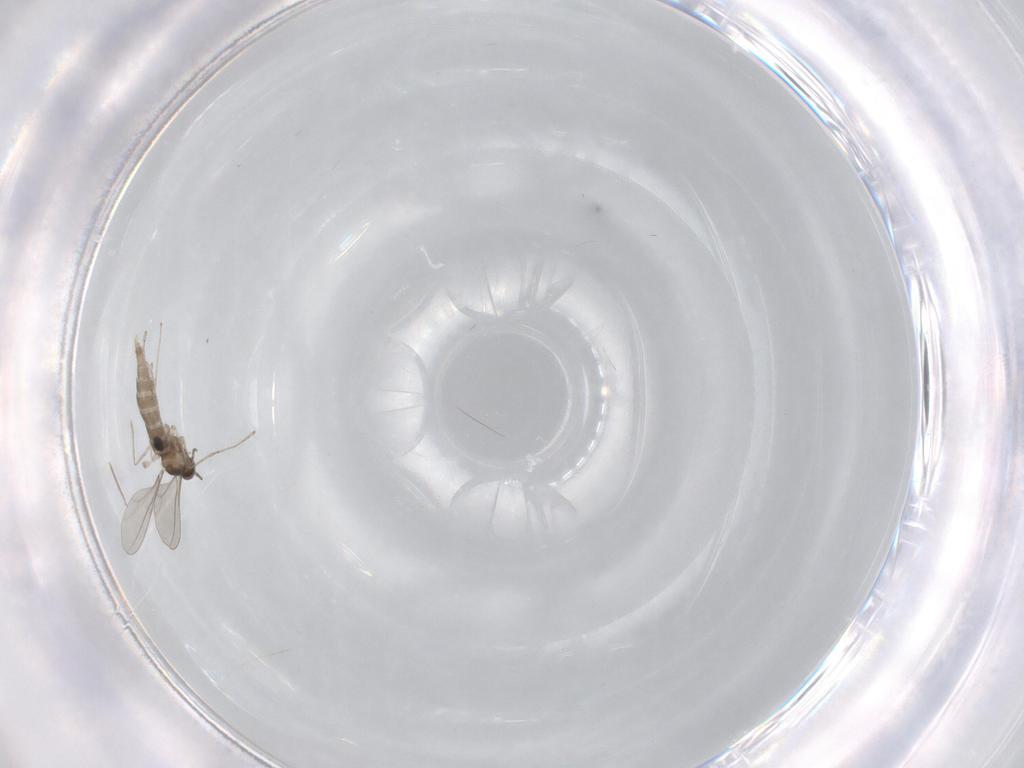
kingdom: Animalia
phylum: Arthropoda
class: Insecta
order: Diptera
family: Chironomidae
